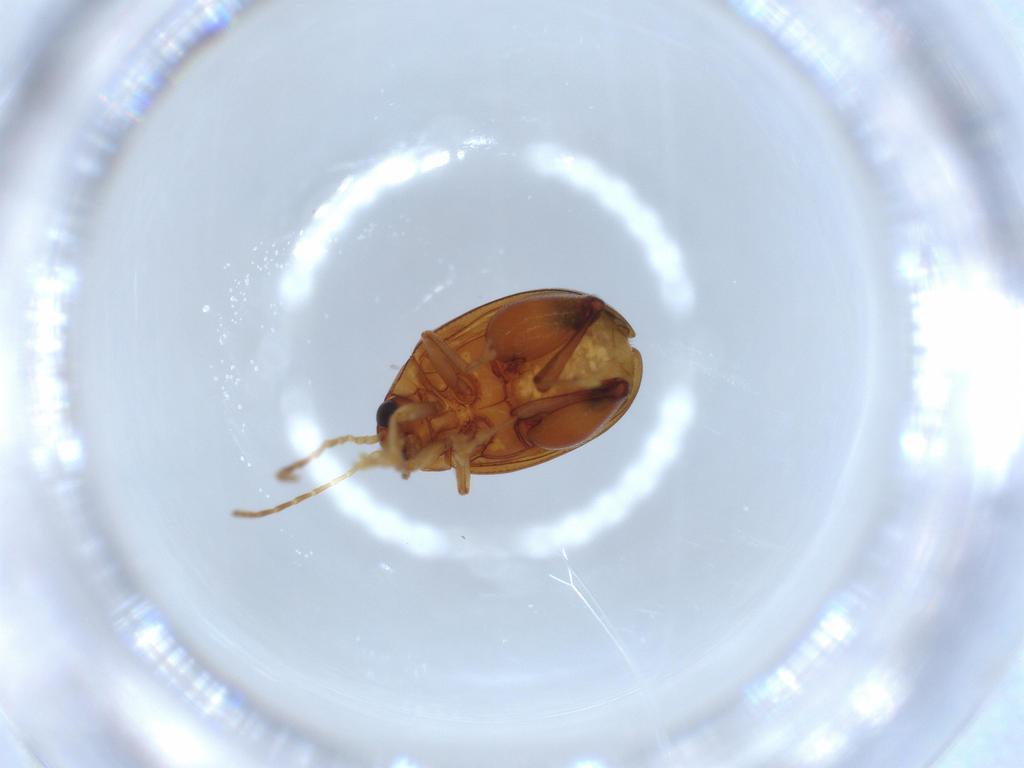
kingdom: Animalia
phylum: Arthropoda
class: Insecta
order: Coleoptera
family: Chrysomelidae
